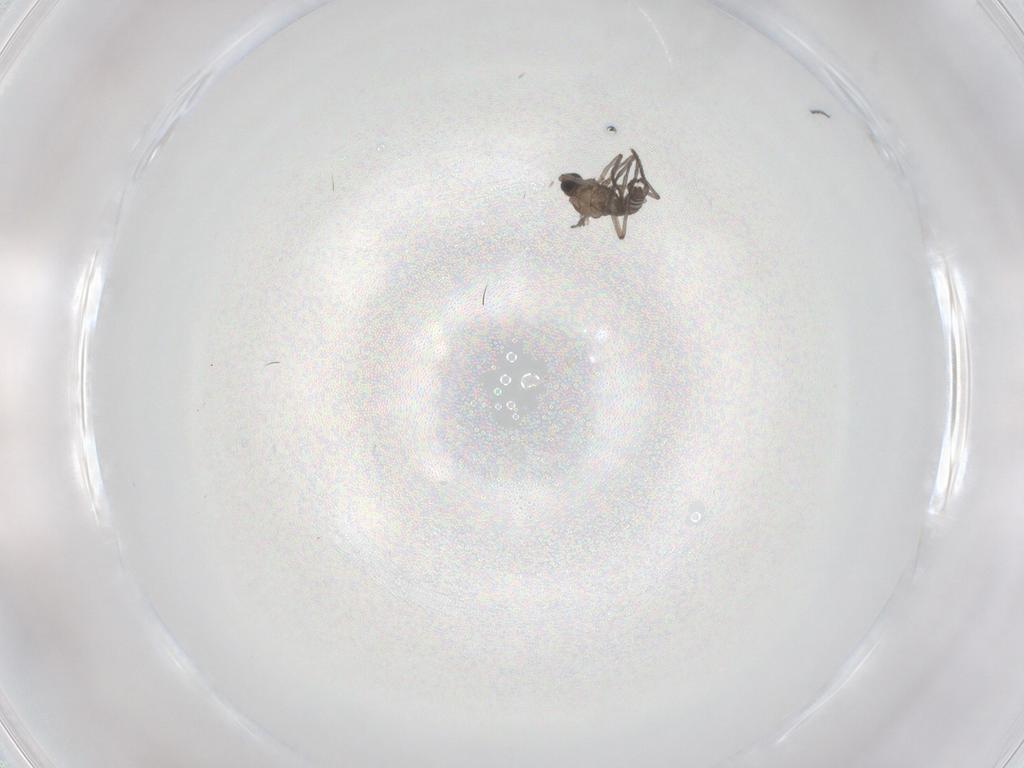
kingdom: Animalia
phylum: Arthropoda
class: Insecta
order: Diptera
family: Sciaridae
